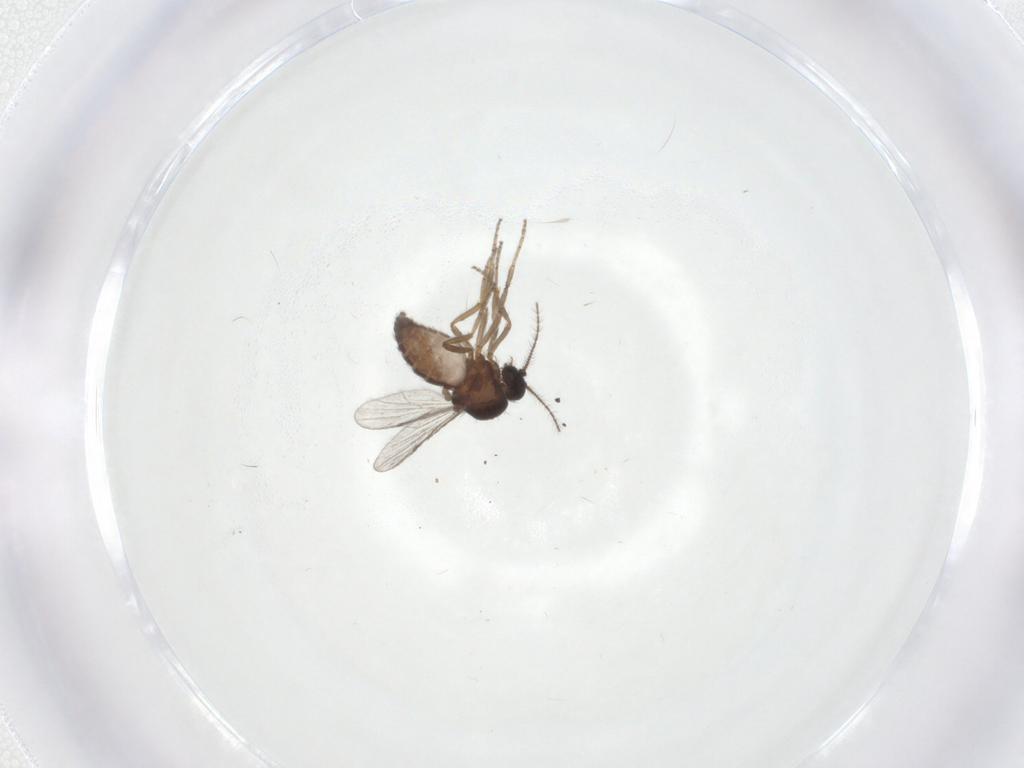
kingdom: Animalia
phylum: Arthropoda
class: Insecta
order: Diptera
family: Ceratopogonidae
